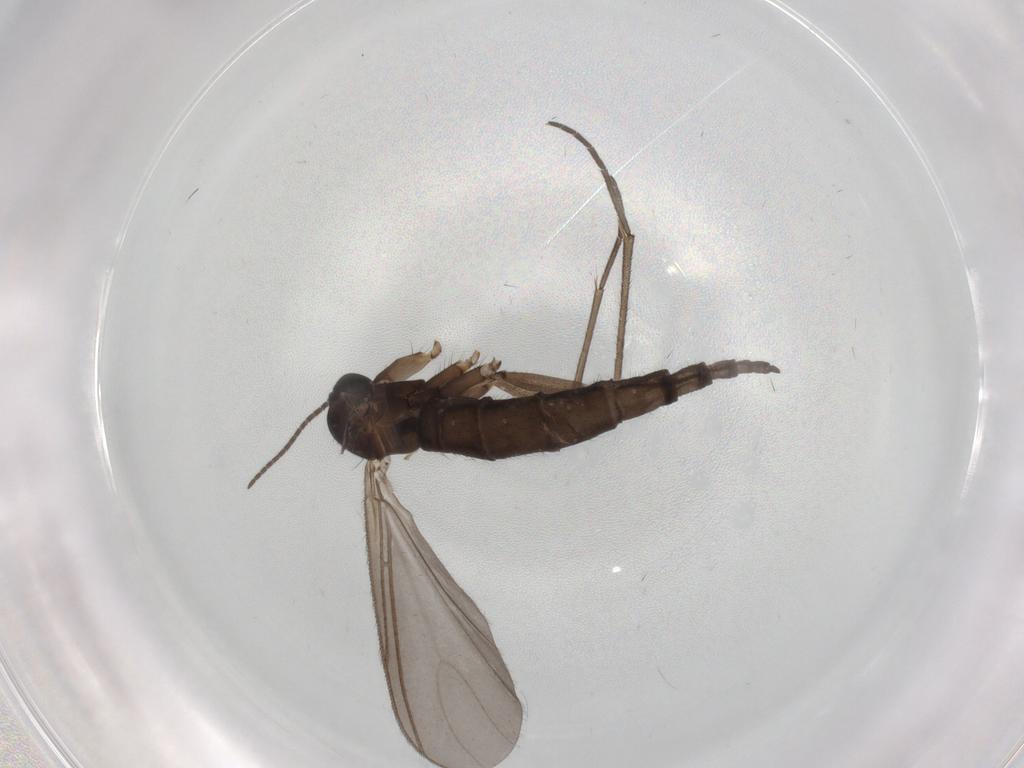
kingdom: Animalia
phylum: Arthropoda
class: Insecta
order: Diptera
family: Sciaridae
